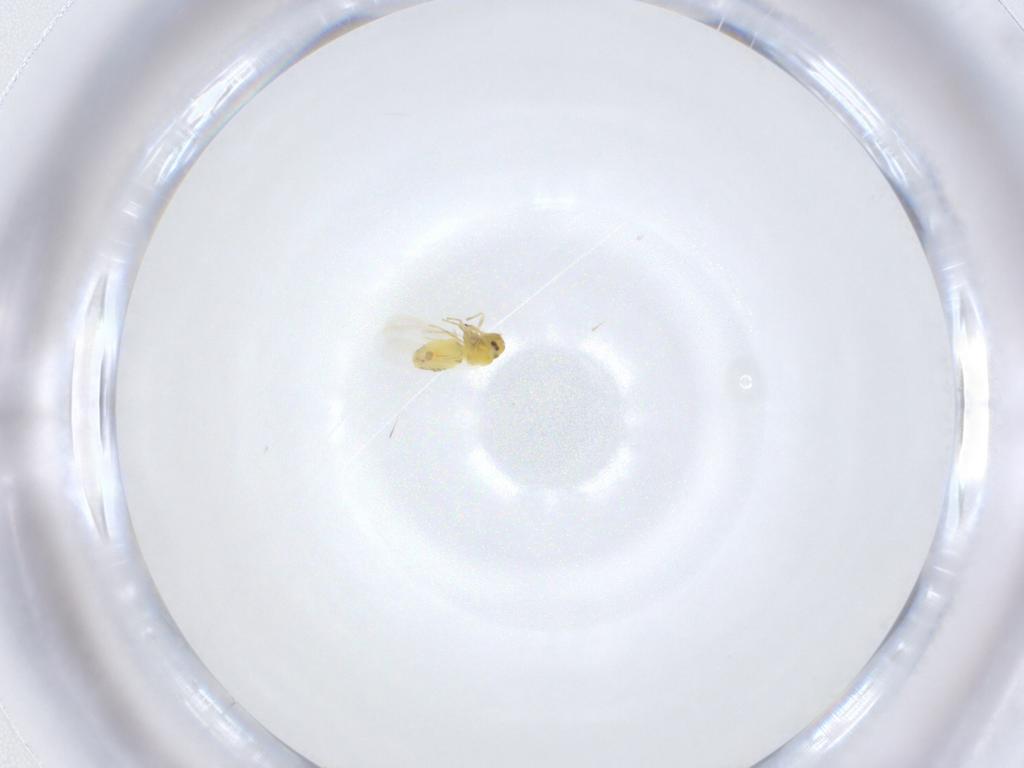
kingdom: Animalia
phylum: Arthropoda
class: Insecta
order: Hemiptera
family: Aleyrodidae
